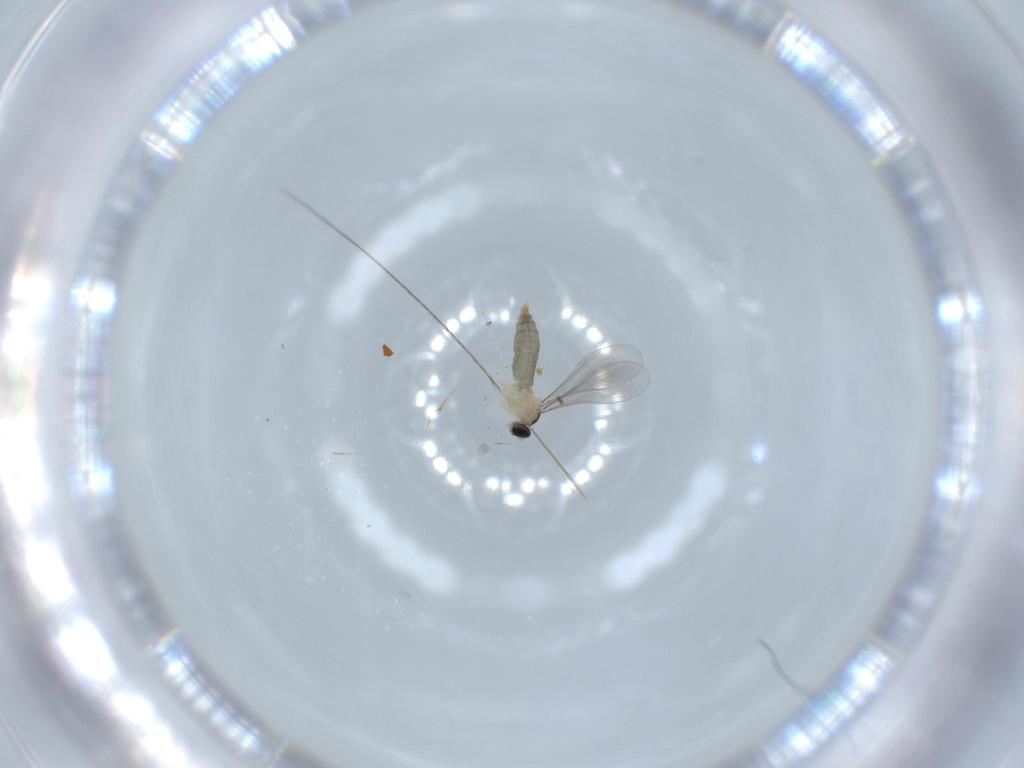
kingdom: Animalia
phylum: Arthropoda
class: Insecta
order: Diptera
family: Cecidomyiidae
